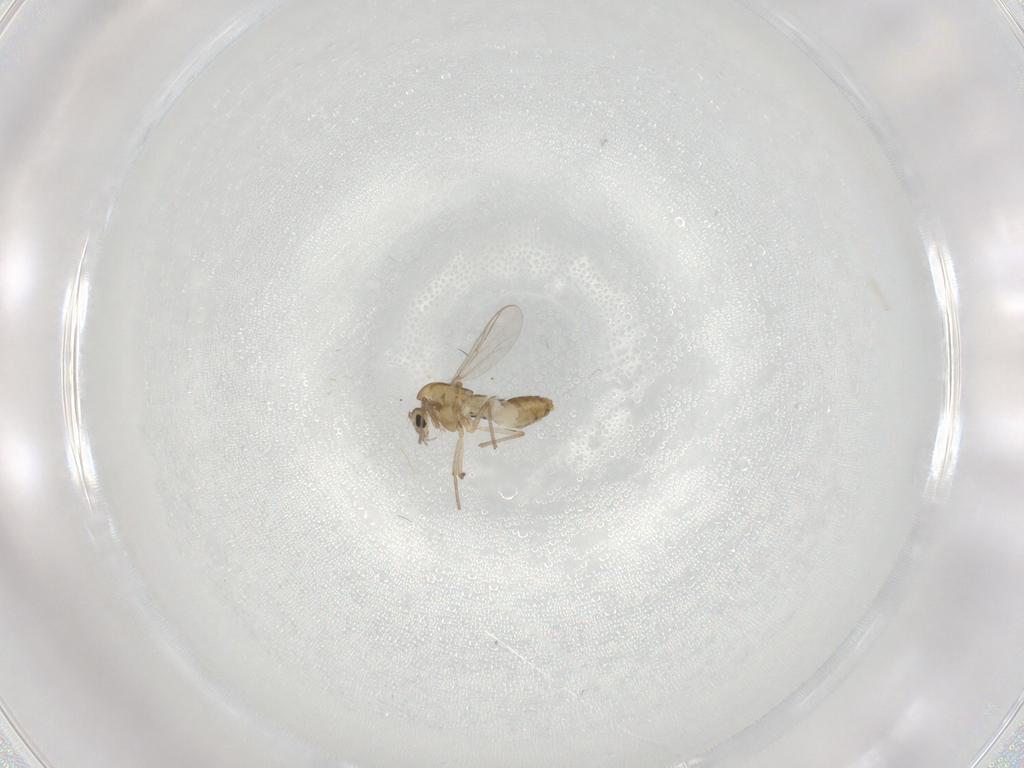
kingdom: Animalia
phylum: Arthropoda
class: Insecta
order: Diptera
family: Chironomidae
